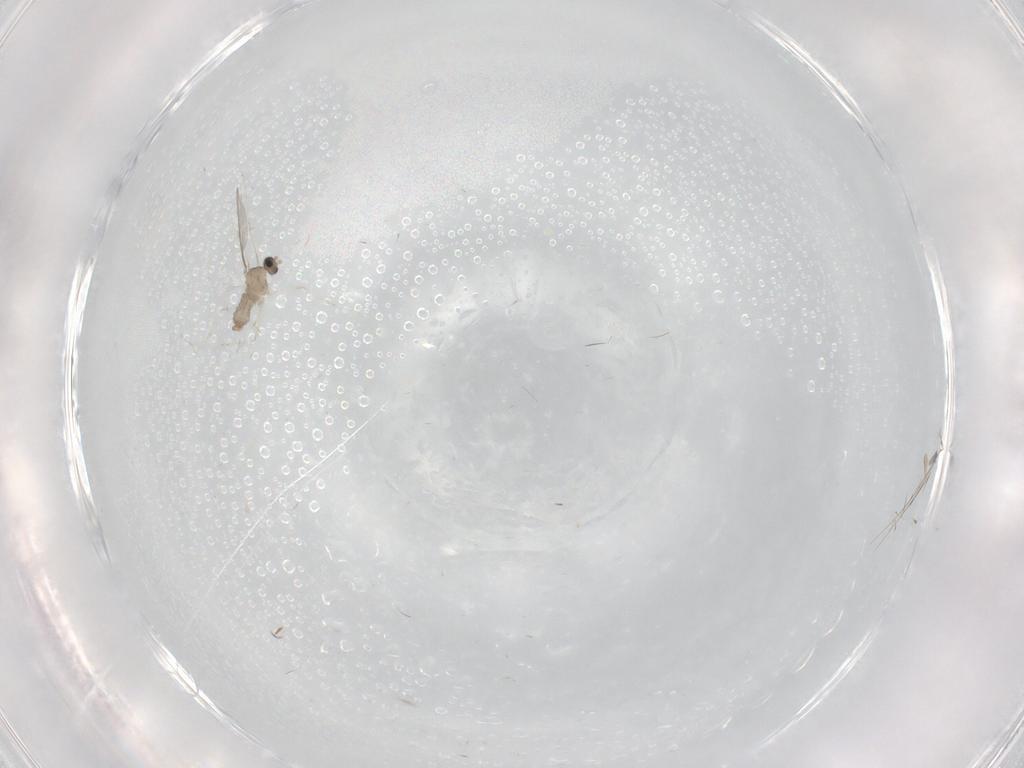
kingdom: Animalia
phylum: Arthropoda
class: Insecta
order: Diptera
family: Cecidomyiidae
